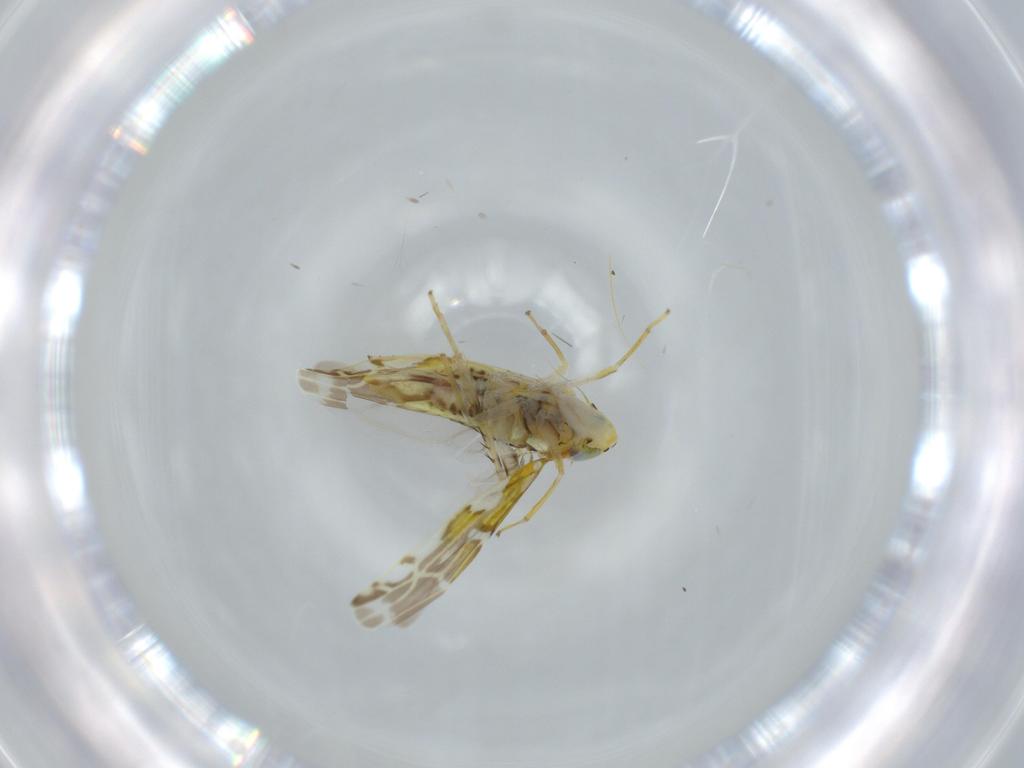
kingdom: Animalia
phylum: Arthropoda
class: Insecta
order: Hemiptera
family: Cicadellidae
